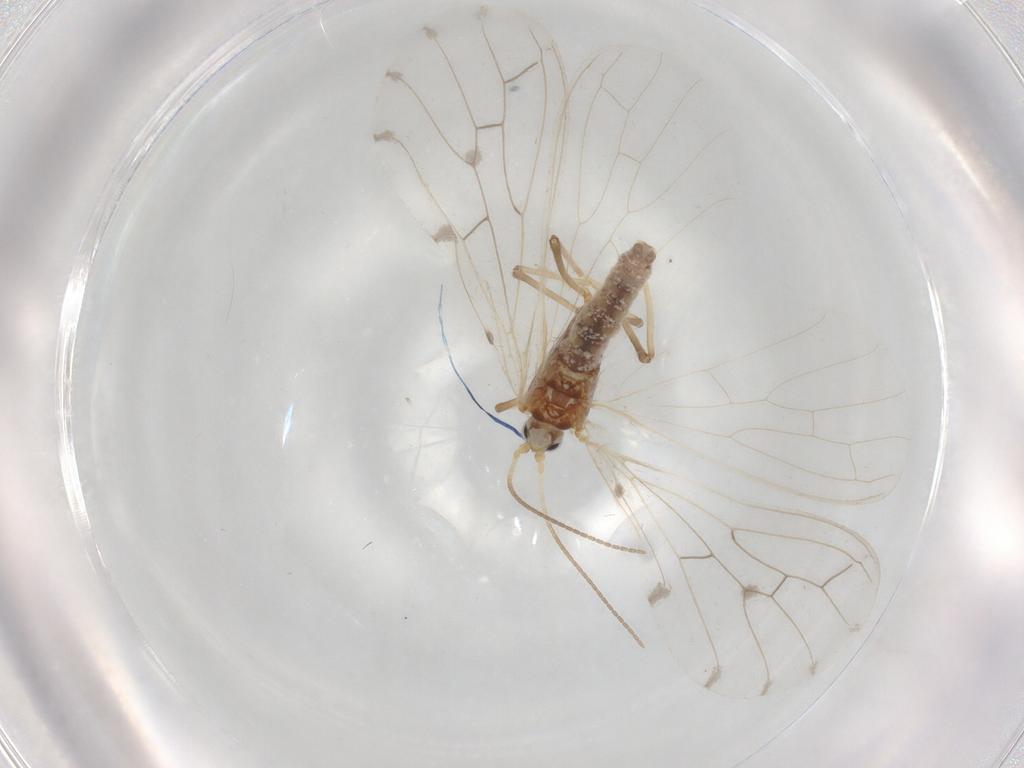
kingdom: Animalia
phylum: Arthropoda
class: Insecta
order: Neuroptera
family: Coniopterygidae
